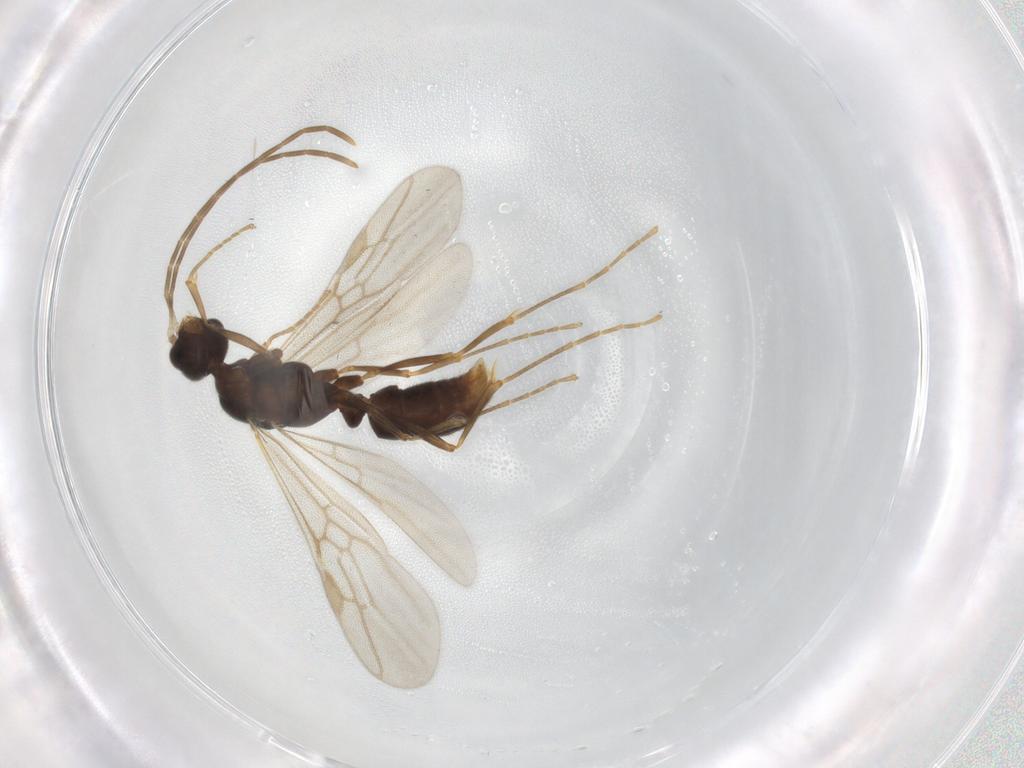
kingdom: Animalia
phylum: Arthropoda
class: Insecta
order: Hymenoptera
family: Formicidae
